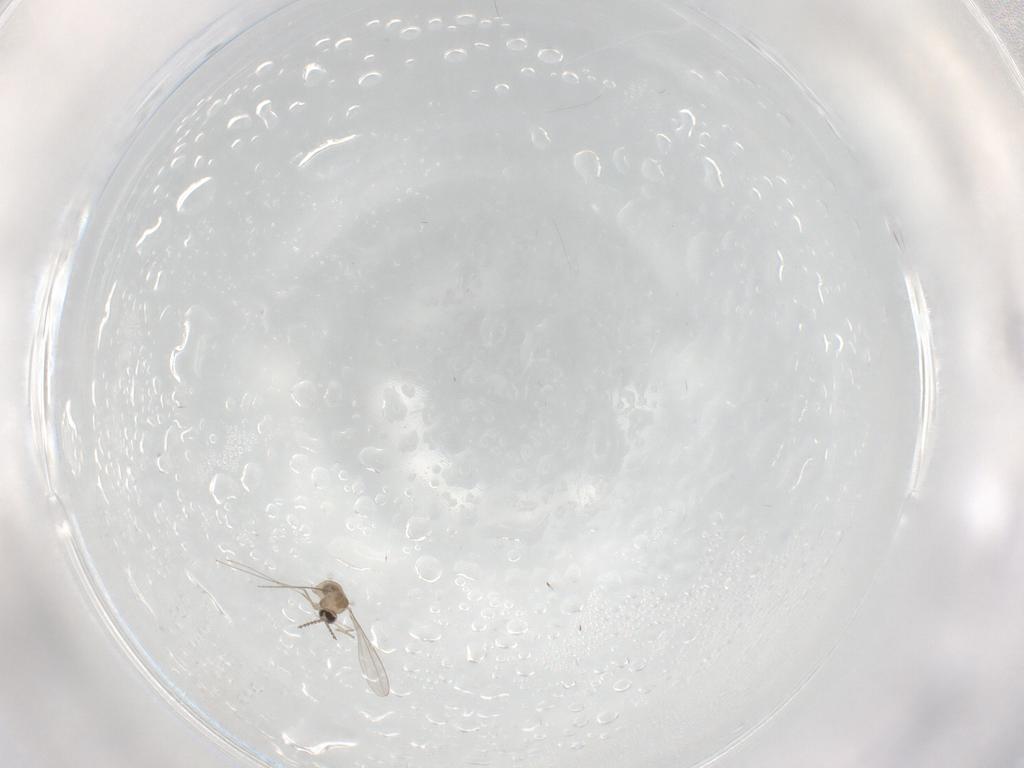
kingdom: Animalia
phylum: Arthropoda
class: Insecta
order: Diptera
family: Cecidomyiidae
